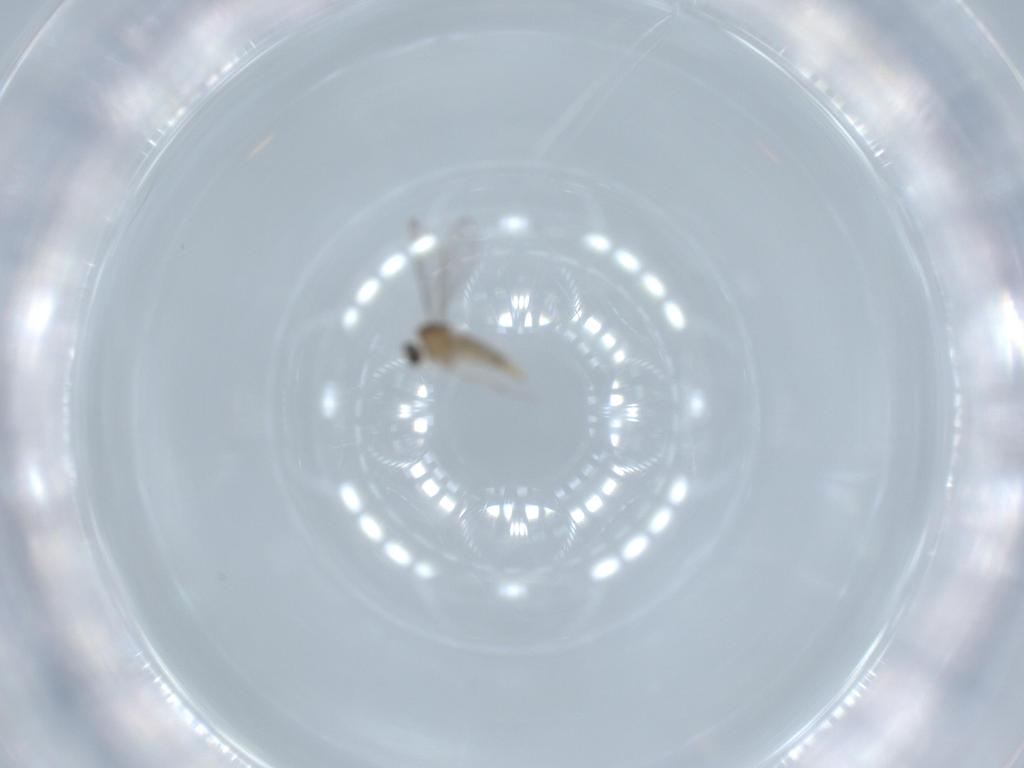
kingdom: Animalia
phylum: Arthropoda
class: Insecta
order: Diptera
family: Cecidomyiidae
